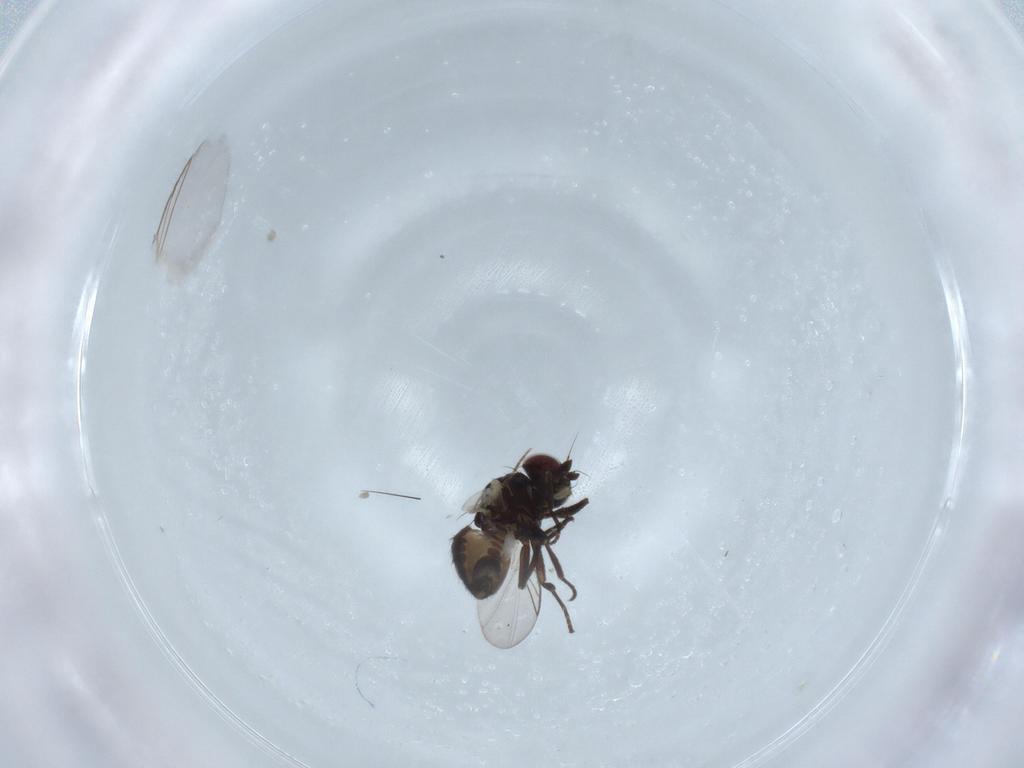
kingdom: Animalia
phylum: Arthropoda
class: Insecta
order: Diptera
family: Phoridae
